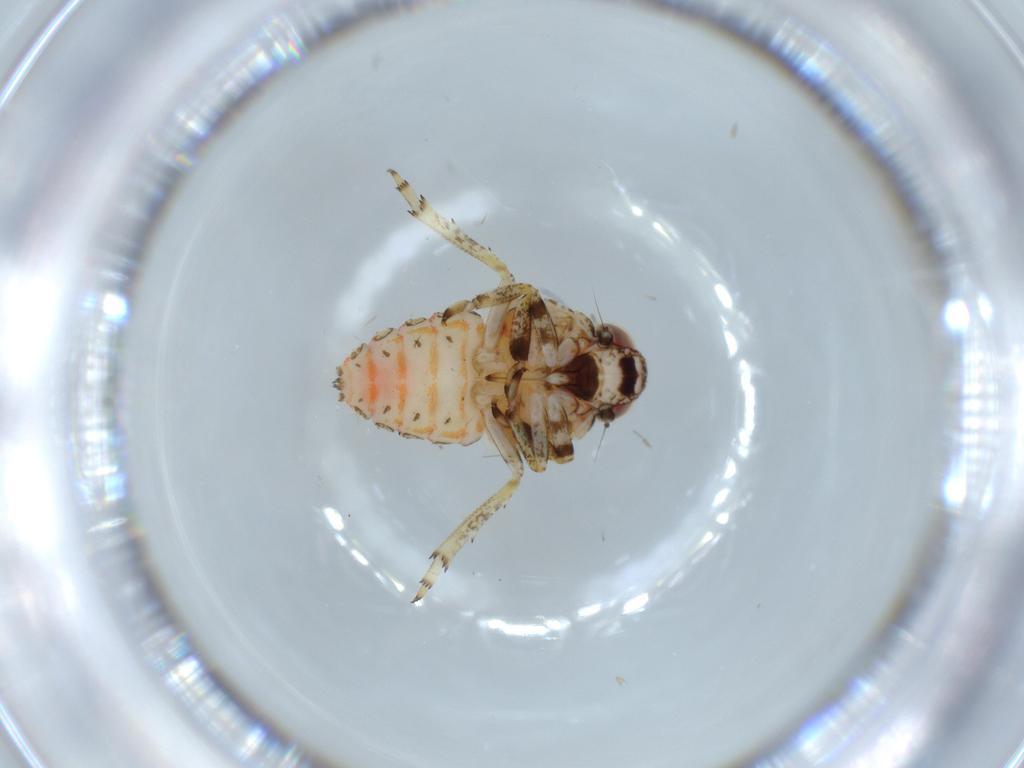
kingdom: Animalia
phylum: Arthropoda
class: Insecta
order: Hemiptera
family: Issidae
